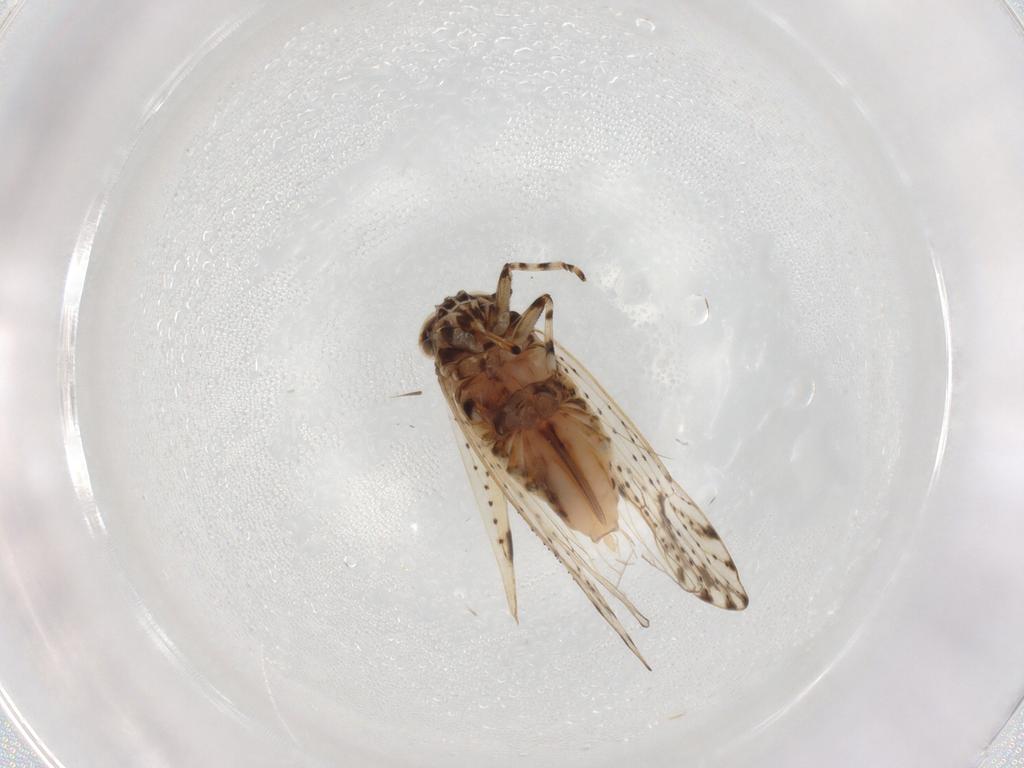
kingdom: Animalia
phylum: Arthropoda
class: Insecta
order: Hemiptera
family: Delphacidae
